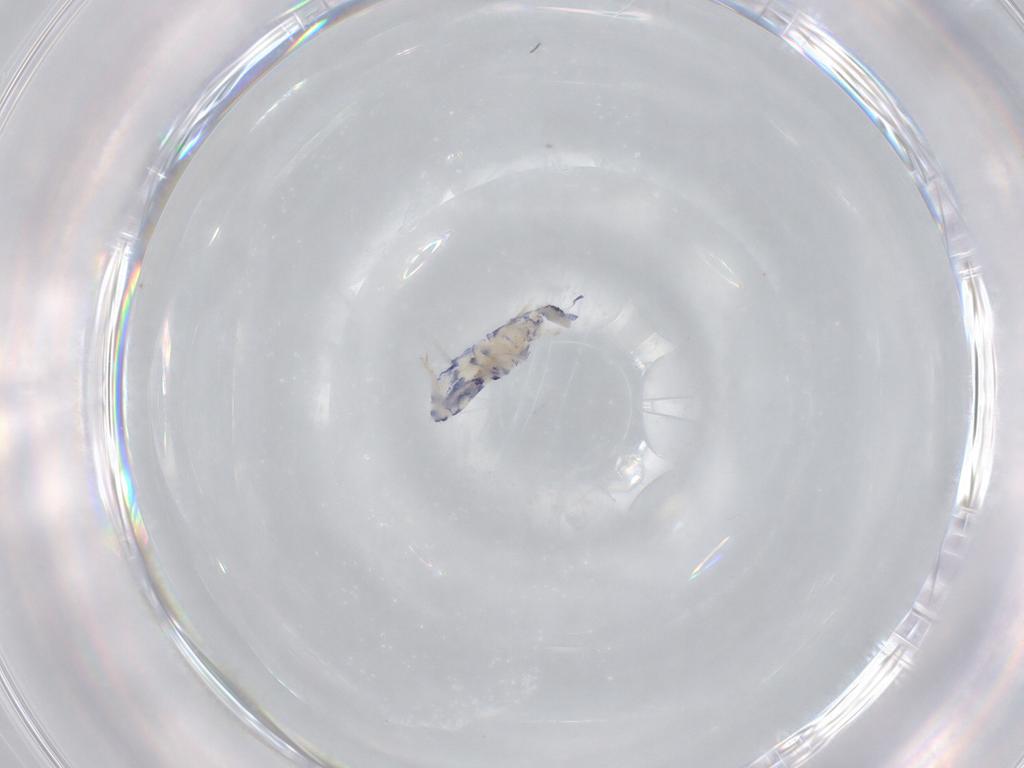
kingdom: Animalia
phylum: Arthropoda
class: Collembola
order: Entomobryomorpha
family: Entomobryidae
